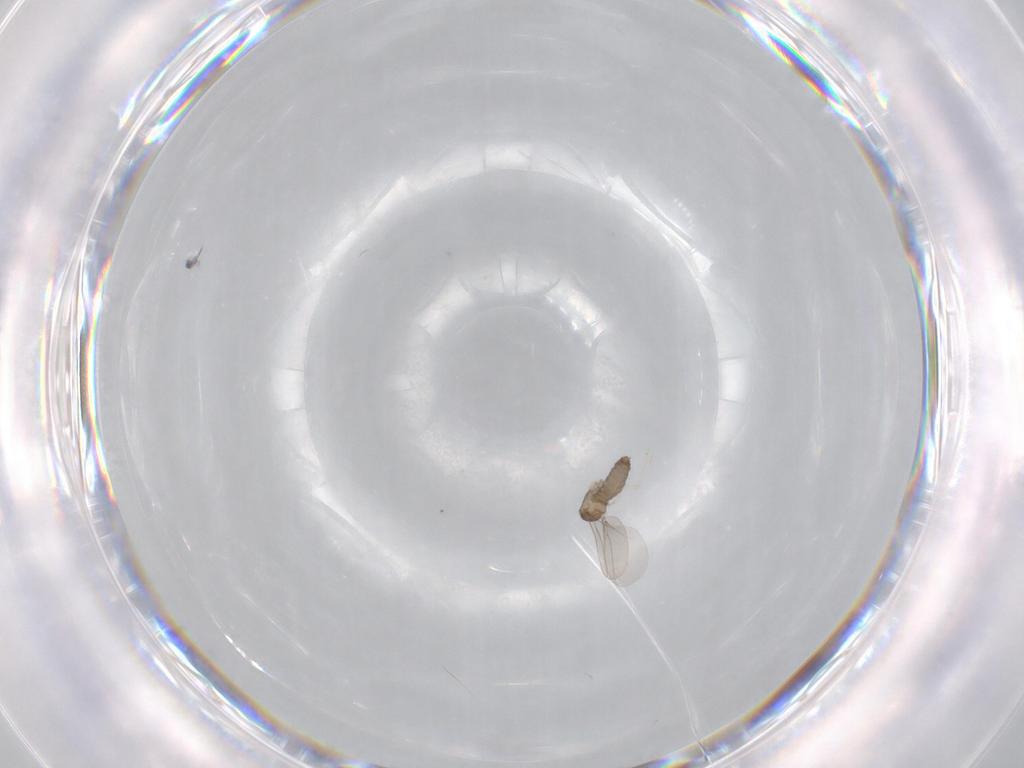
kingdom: Animalia
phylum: Arthropoda
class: Insecta
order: Diptera
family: Cecidomyiidae
